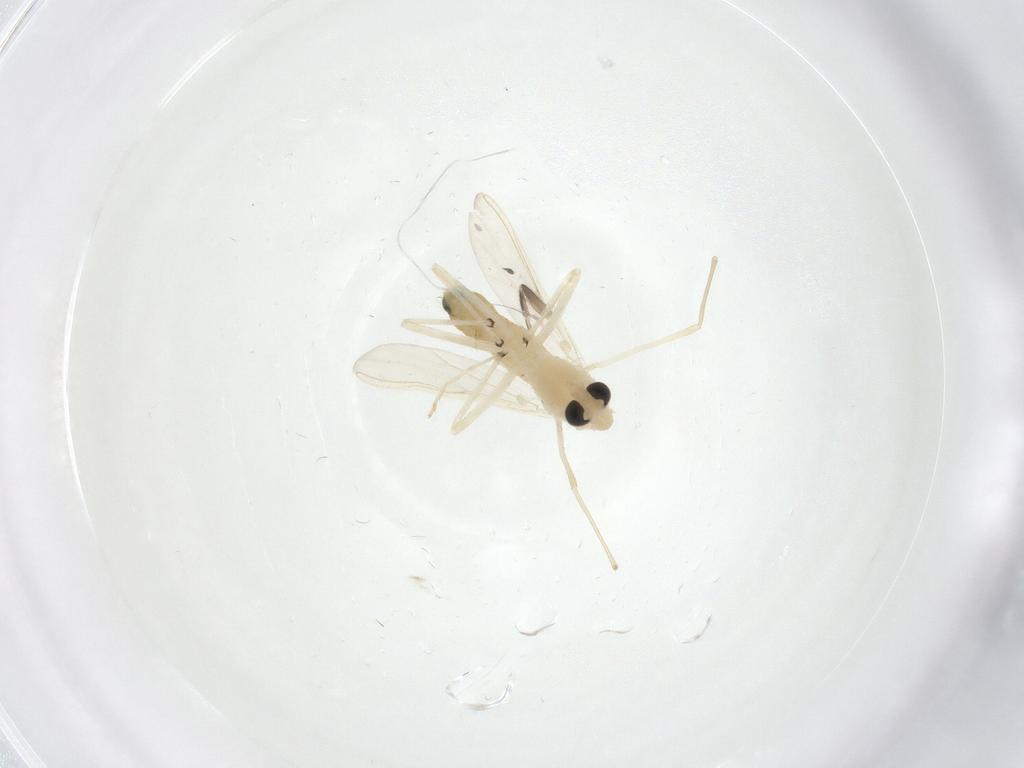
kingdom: Animalia
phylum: Arthropoda
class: Insecta
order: Diptera
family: Chironomidae
